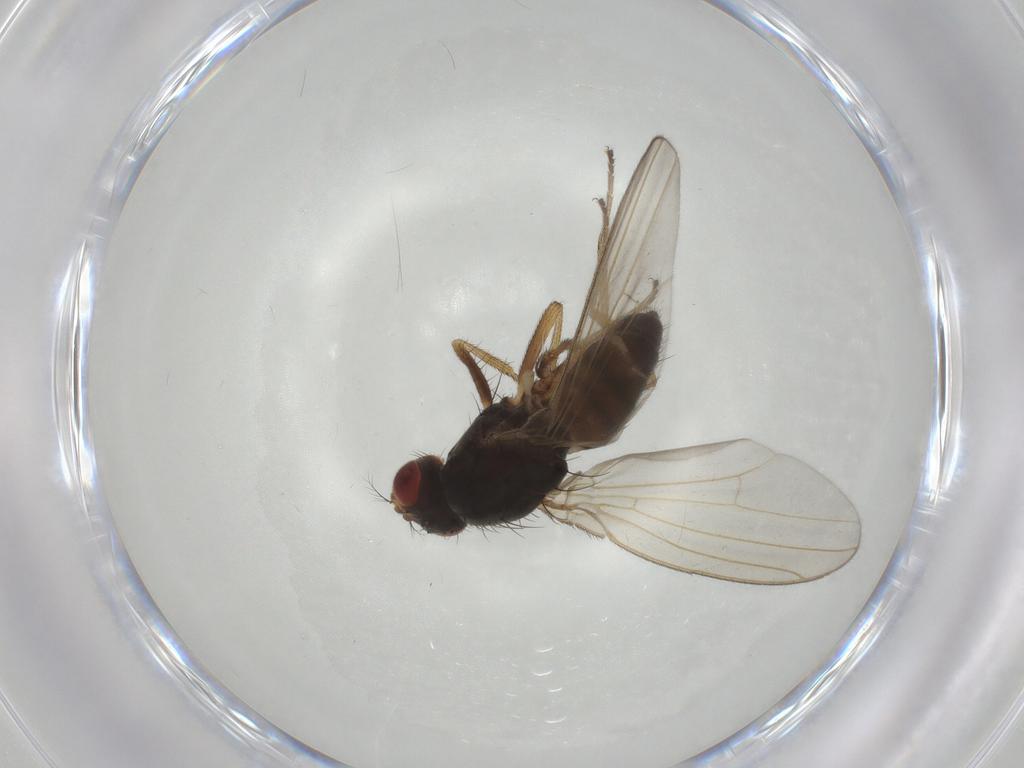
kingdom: Animalia
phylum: Arthropoda
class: Insecta
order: Diptera
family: Drosophilidae
